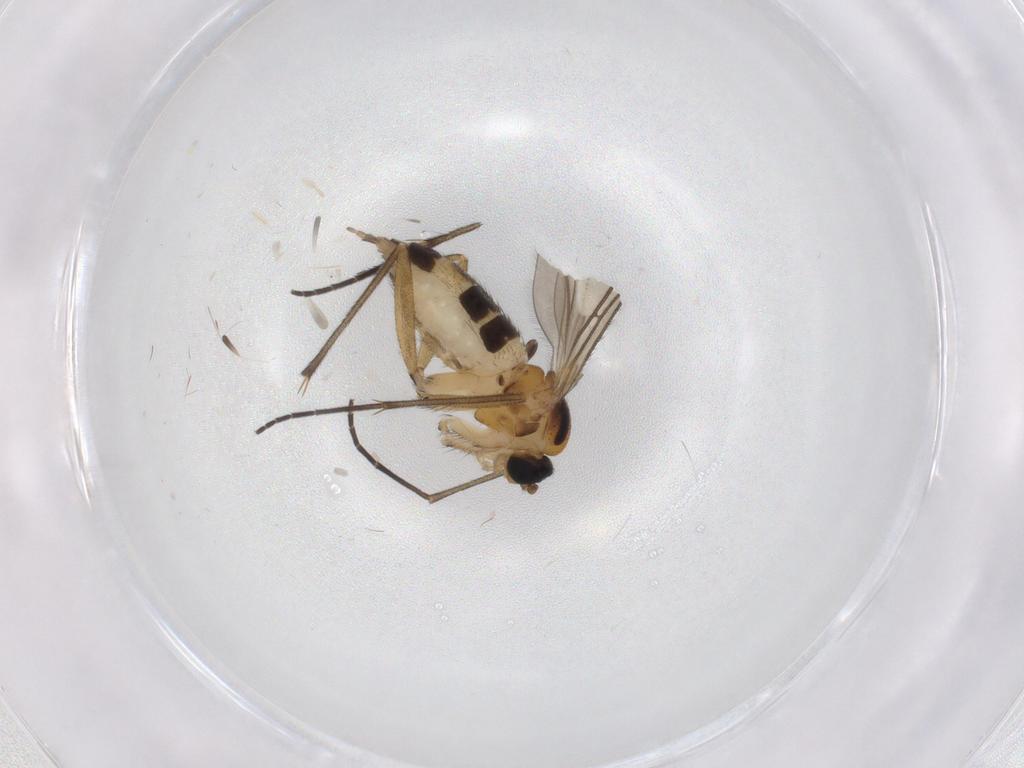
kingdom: Animalia
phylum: Arthropoda
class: Insecta
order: Diptera
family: Sciaridae
